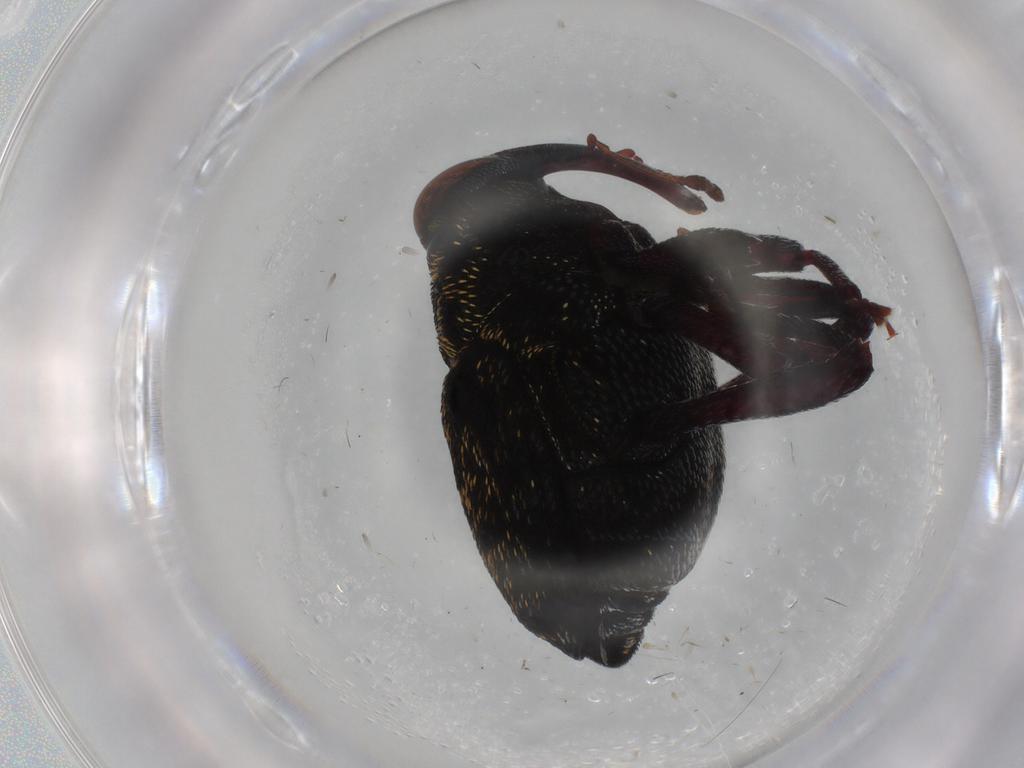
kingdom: Animalia
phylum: Arthropoda
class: Insecta
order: Coleoptera
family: Curculionidae
